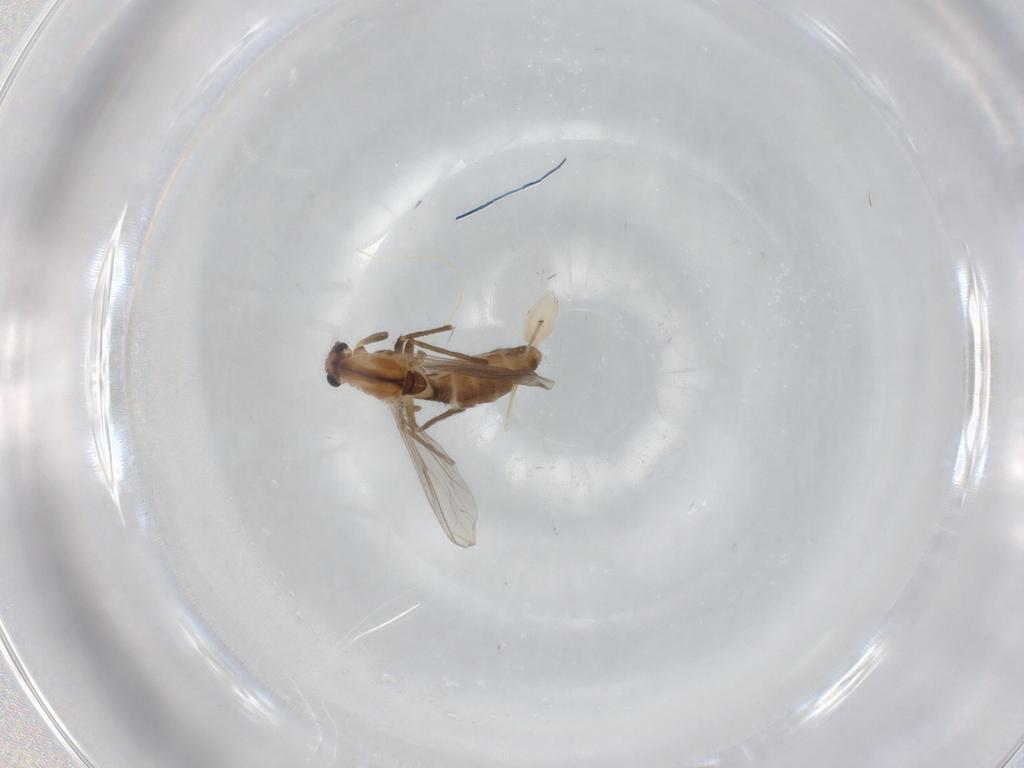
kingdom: Animalia
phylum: Arthropoda
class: Insecta
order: Diptera
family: Chironomidae
